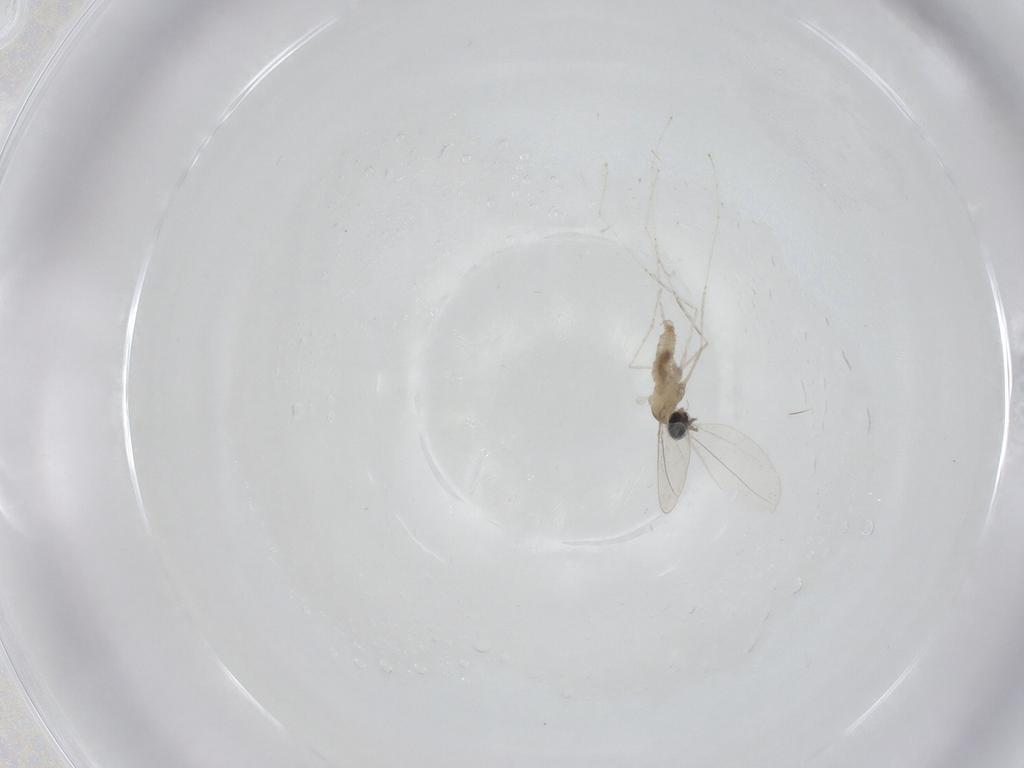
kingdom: Animalia
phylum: Arthropoda
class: Insecta
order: Diptera
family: Cecidomyiidae
